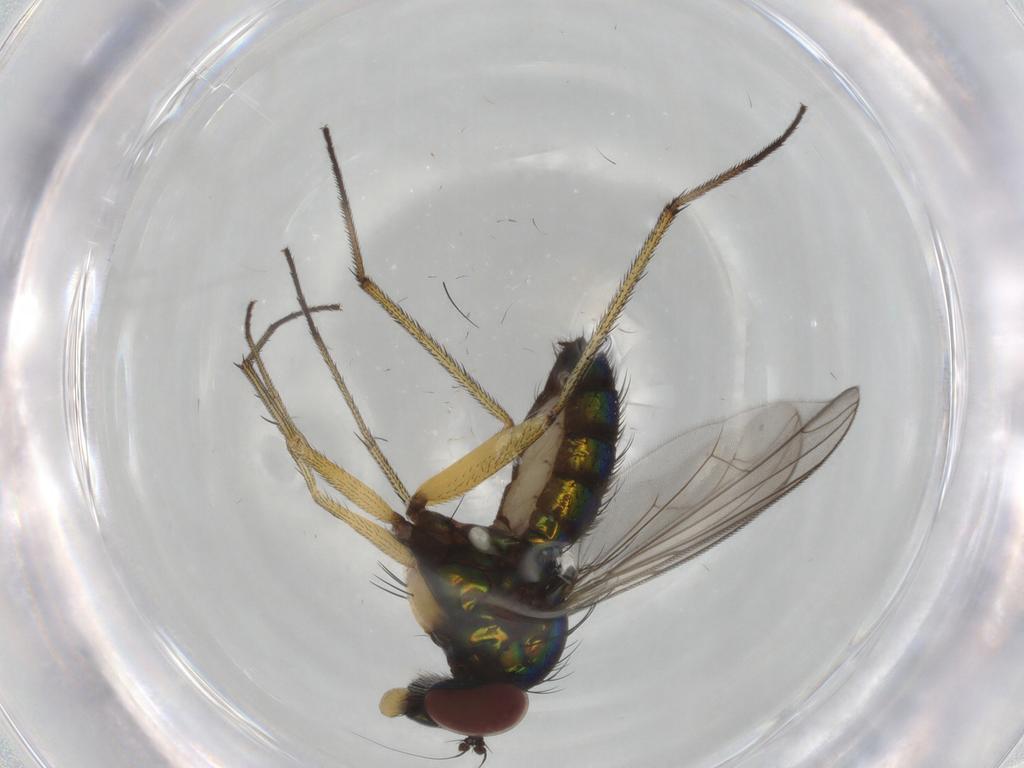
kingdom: Animalia
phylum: Arthropoda
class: Insecta
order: Diptera
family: Dolichopodidae
